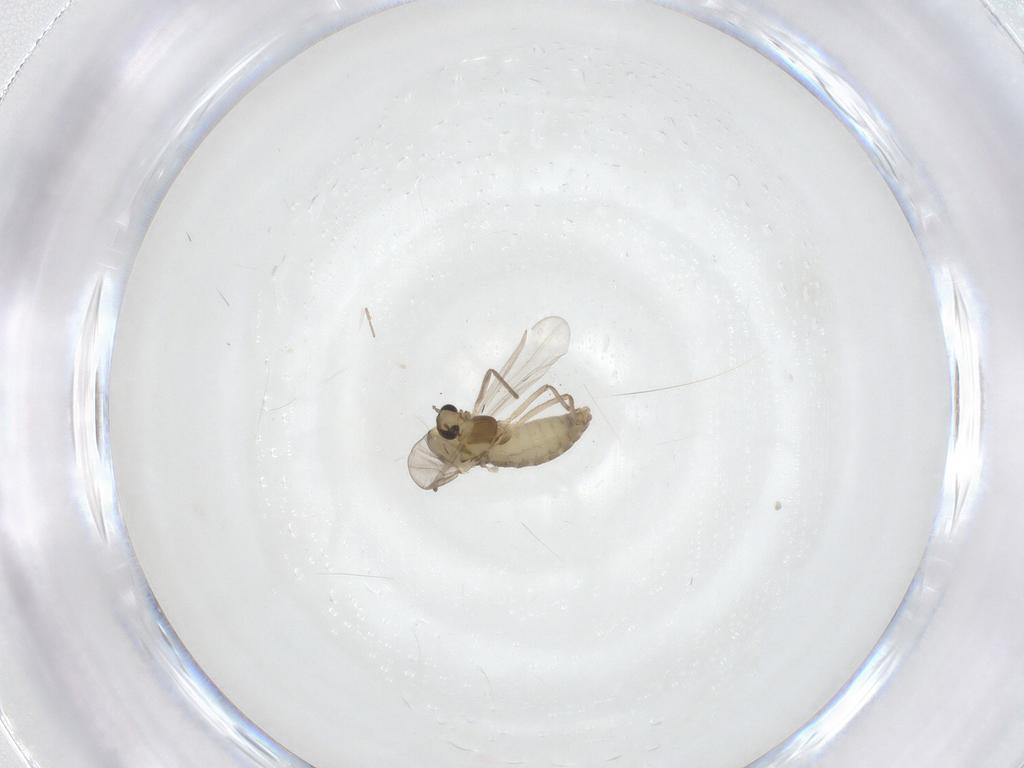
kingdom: Animalia
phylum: Arthropoda
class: Insecta
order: Diptera
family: Chironomidae
